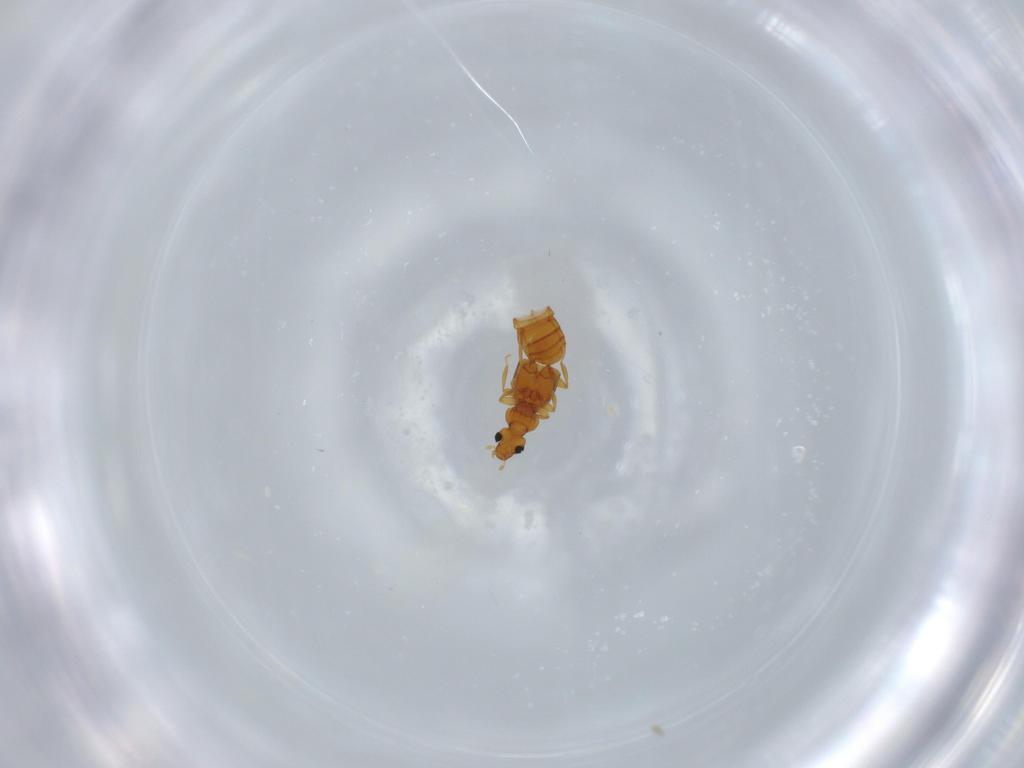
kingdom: Animalia
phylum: Arthropoda
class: Insecta
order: Coleoptera
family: Staphylinidae
